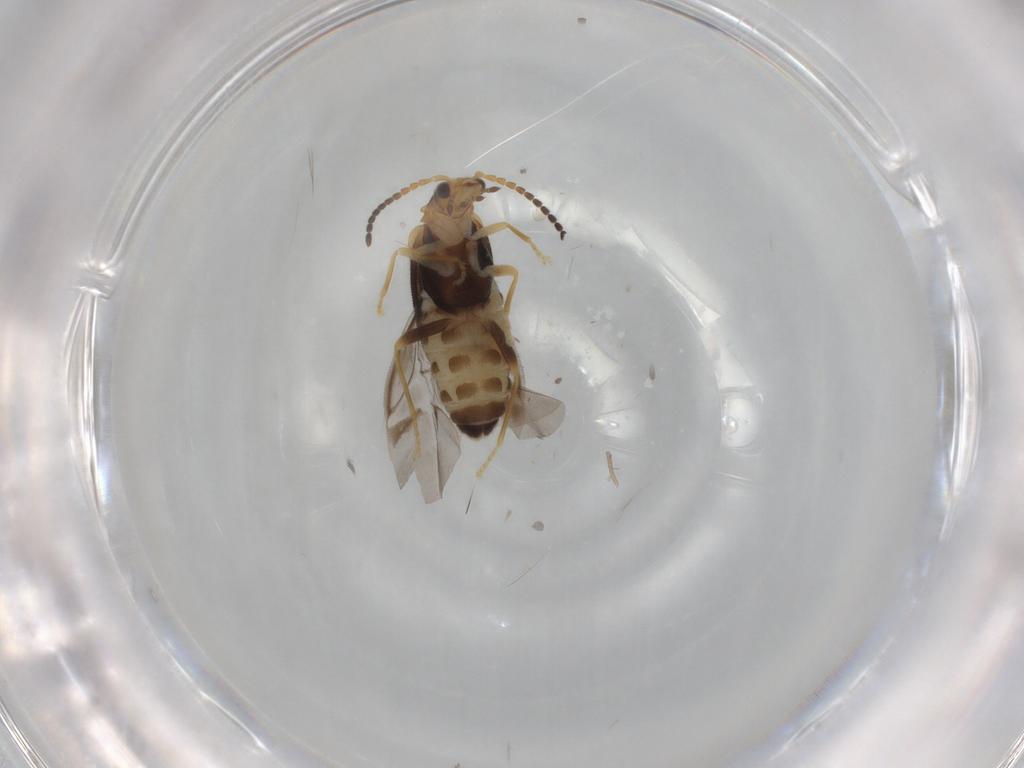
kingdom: Animalia
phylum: Arthropoda
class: Insecta
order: Coleoptera
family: Cantharidae
